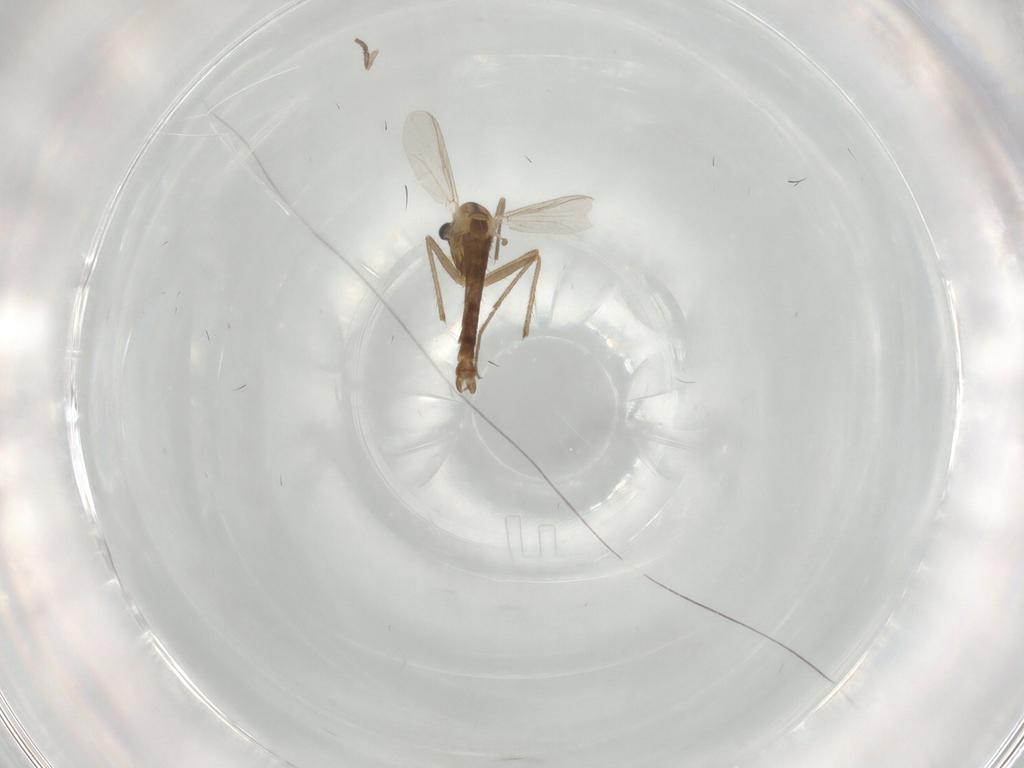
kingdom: Animalia
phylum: Arthropoda
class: Insecta
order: Diptera
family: Chironomidae
